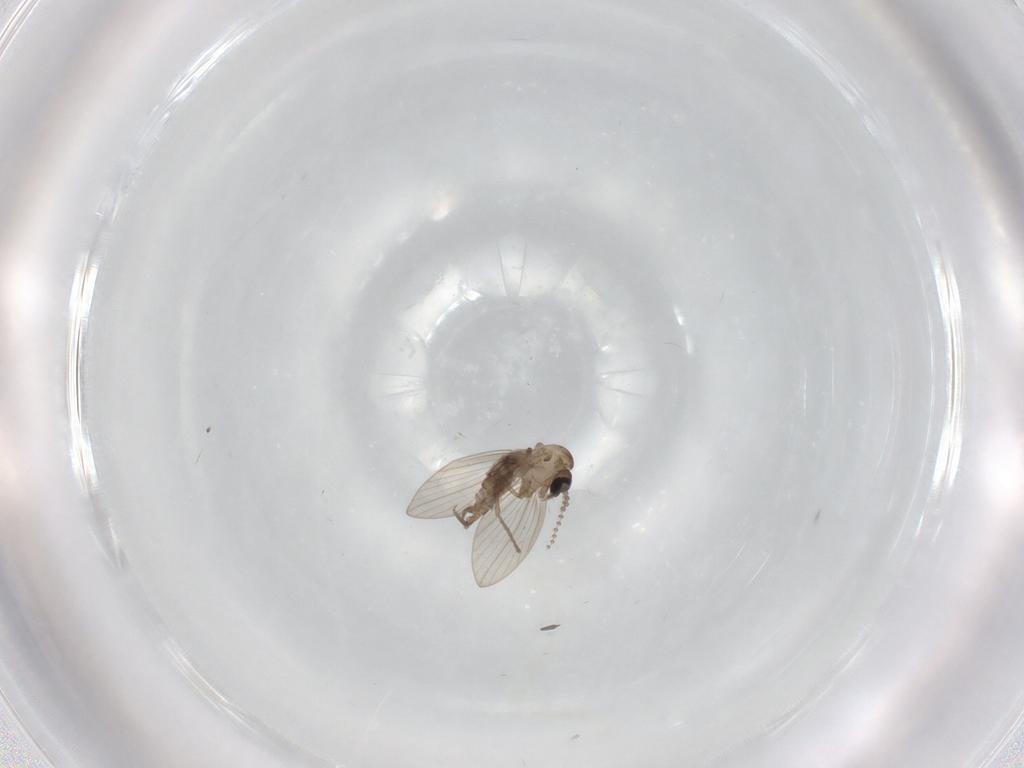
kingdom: Animalia
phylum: Arthropoda
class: Insecta
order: Diptera
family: Psychodidae
